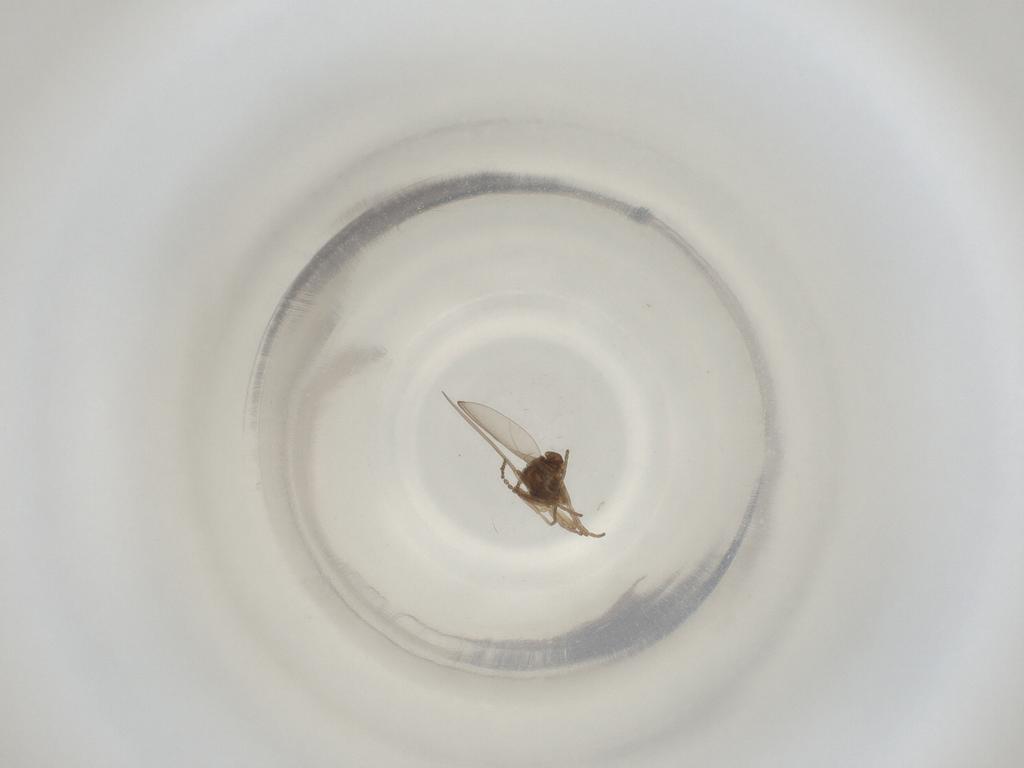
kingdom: Animalia
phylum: Arthropoda
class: Insecta
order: Diptera
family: Cecidomyiidae
